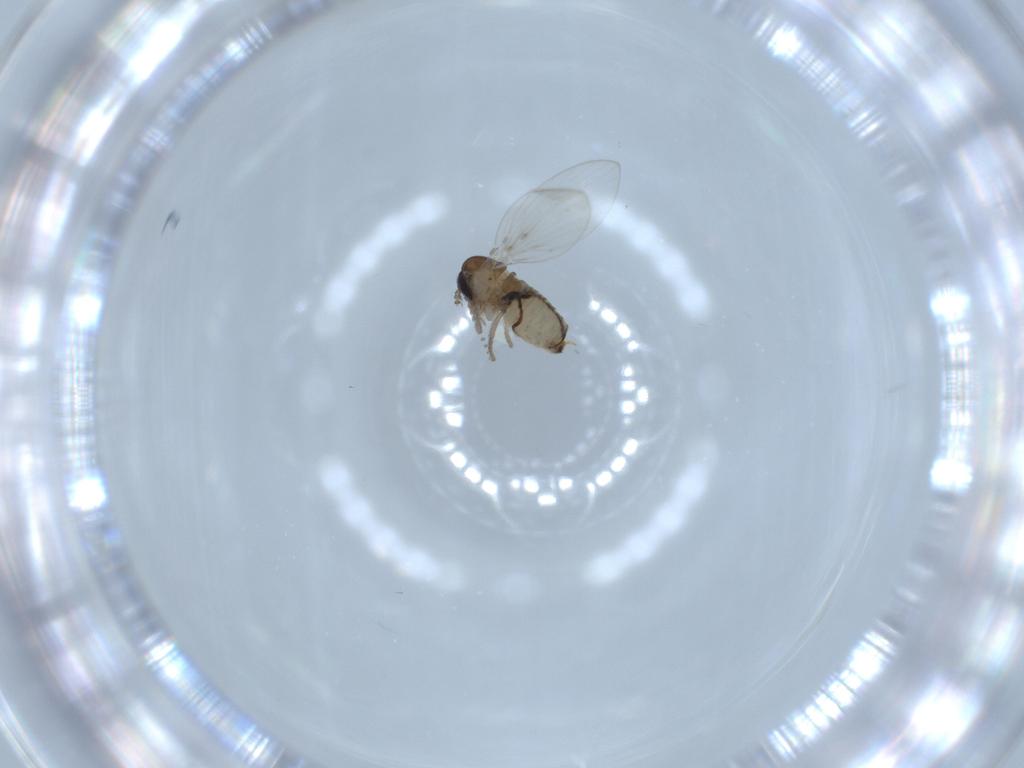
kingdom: Animalia
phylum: Arthropoda
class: Insecta
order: Diptera
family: Psychodidae
